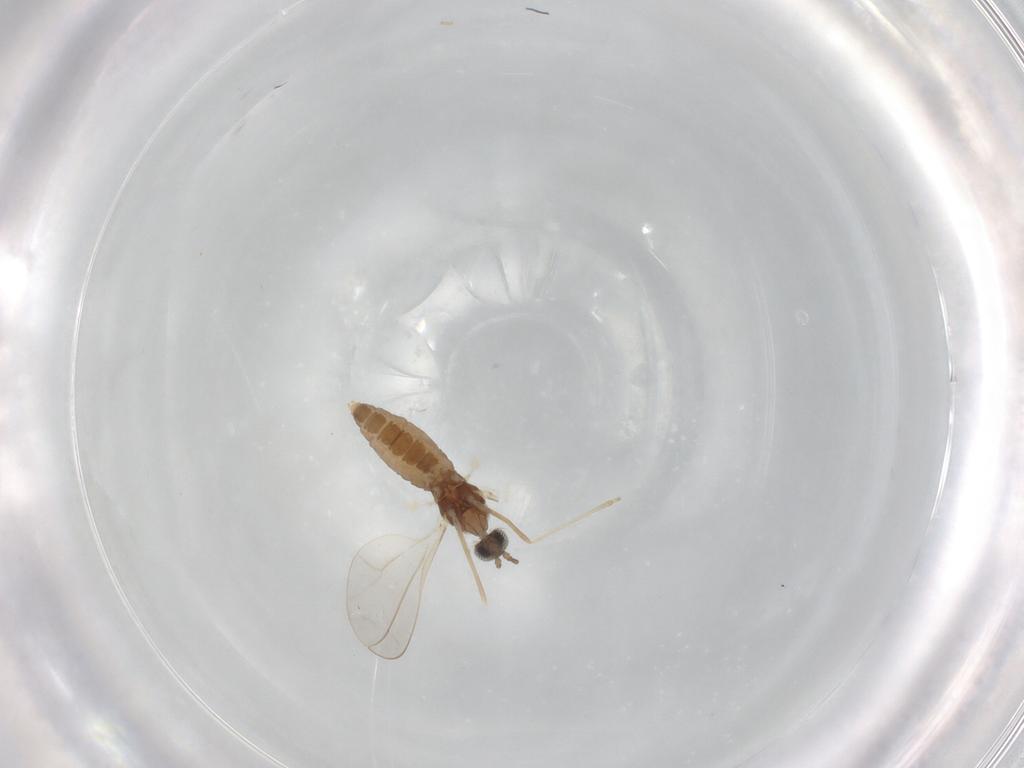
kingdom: Animalia
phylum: Arthropoda
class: Insecta
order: Diptera
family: Cecidomyiidae
